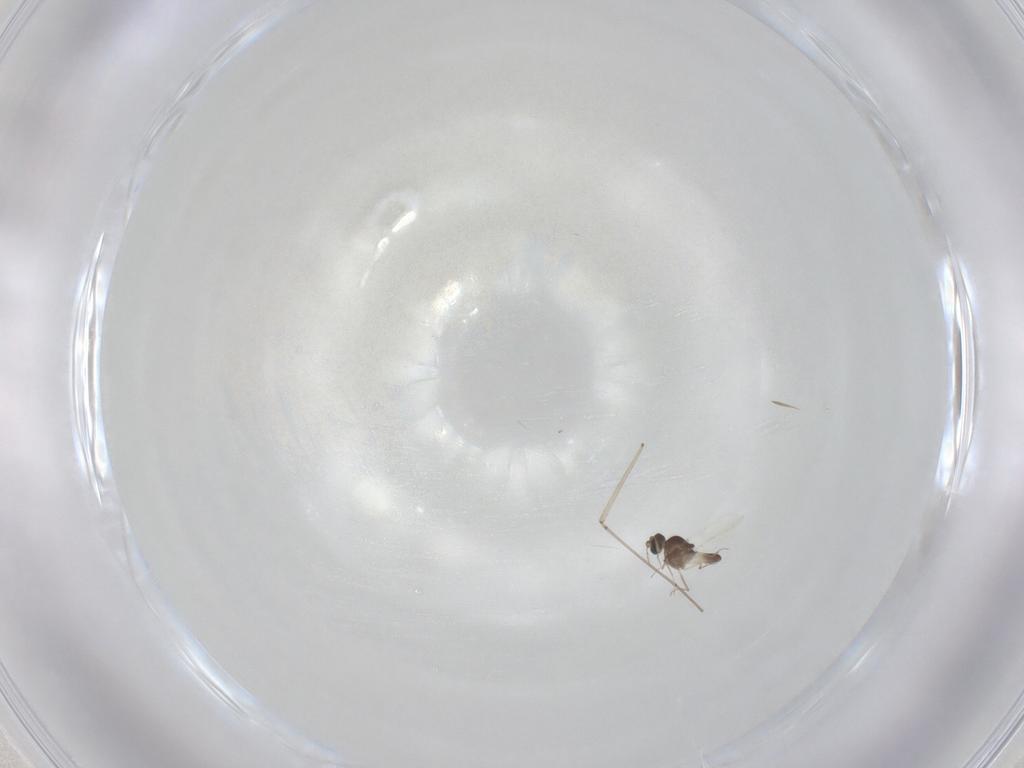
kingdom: Animalia
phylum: Arthropoda
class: Insecta
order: Diptera
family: Ceratopogonidae
